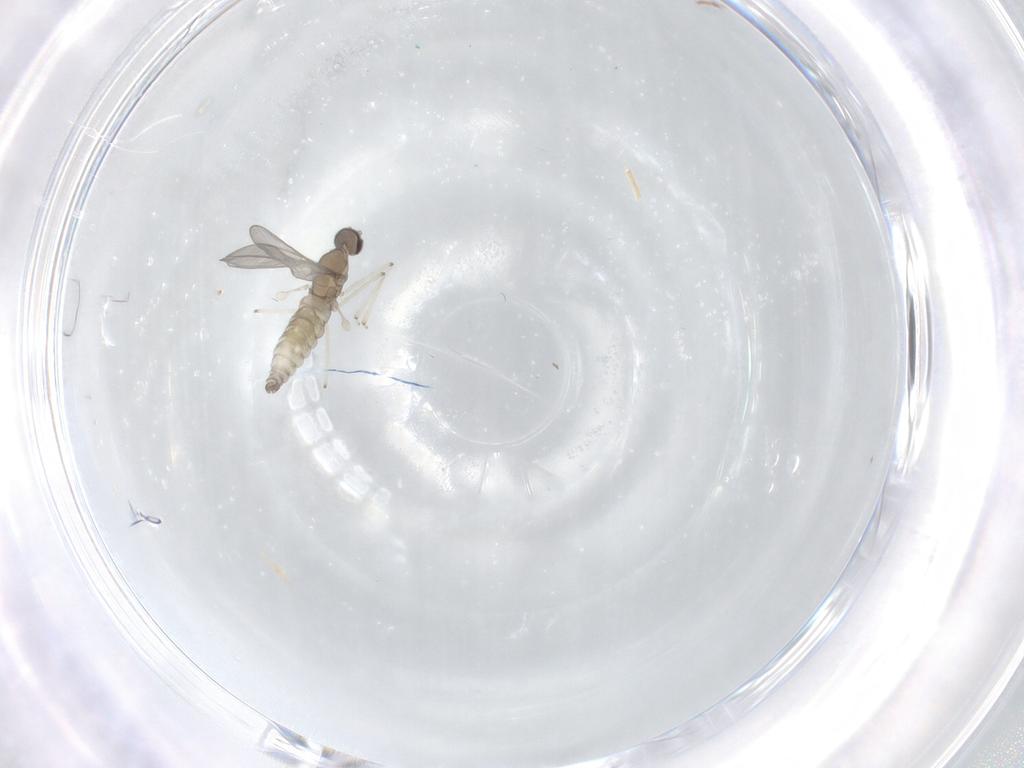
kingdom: Animalia
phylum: Arthropoda
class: Insecta
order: Diptera
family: Cecidomyiidae
